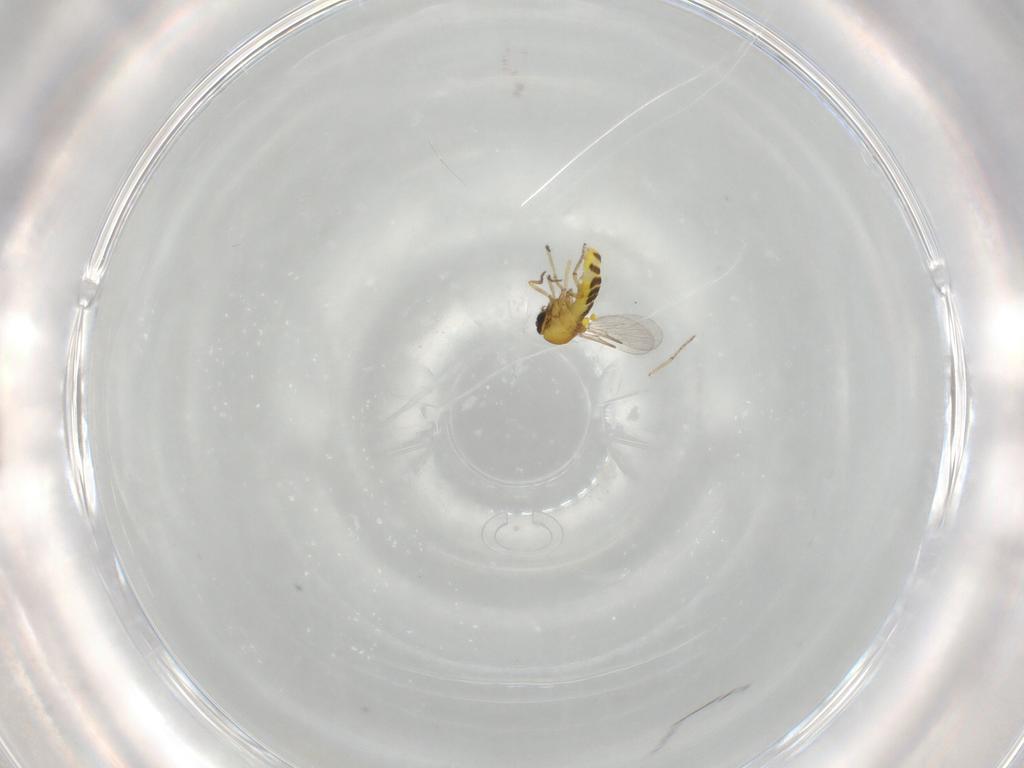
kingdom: Animalia
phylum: Arthropoda
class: Insecta
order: Diptera
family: Ceratopogonidae
